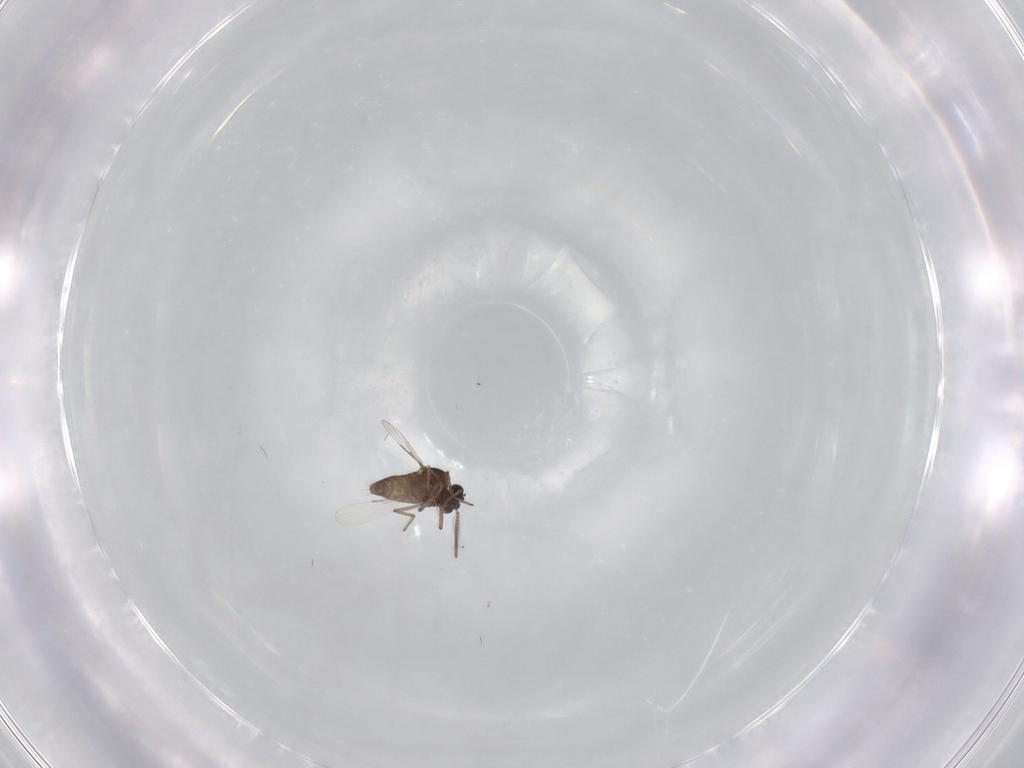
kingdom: Animalia
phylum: Arthropoda
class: Insecta
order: Diptera
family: Ceratopogonidae
